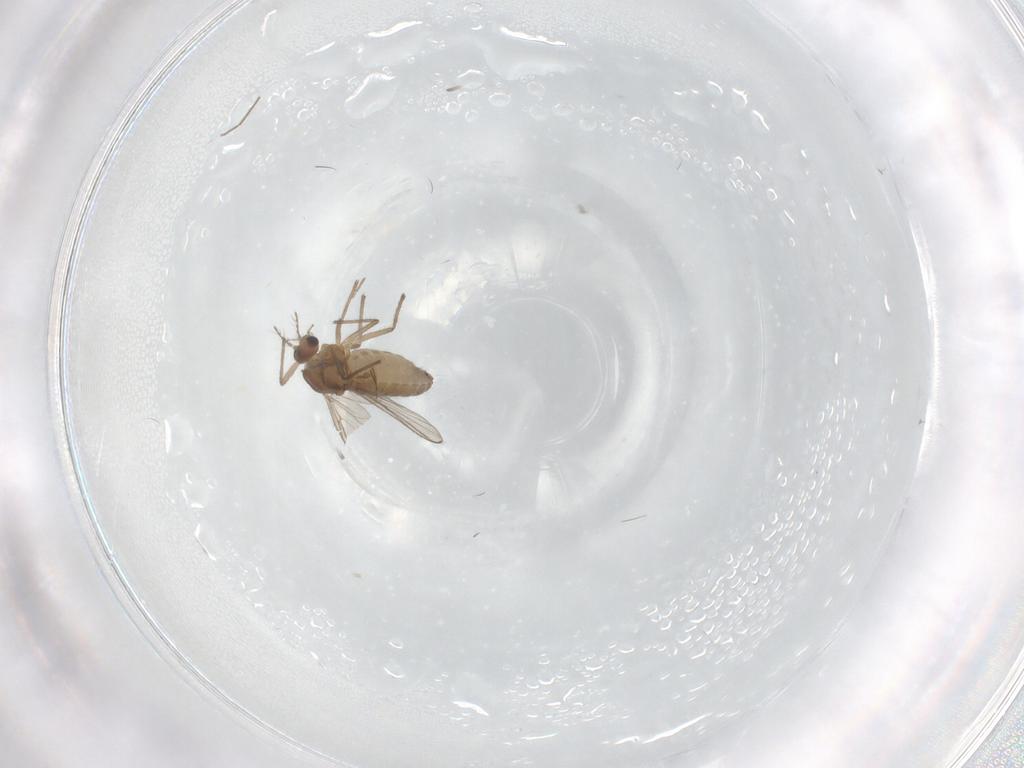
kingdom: Animalia
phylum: Arthropoda
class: Insecta
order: Diptera
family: Chironomidae
